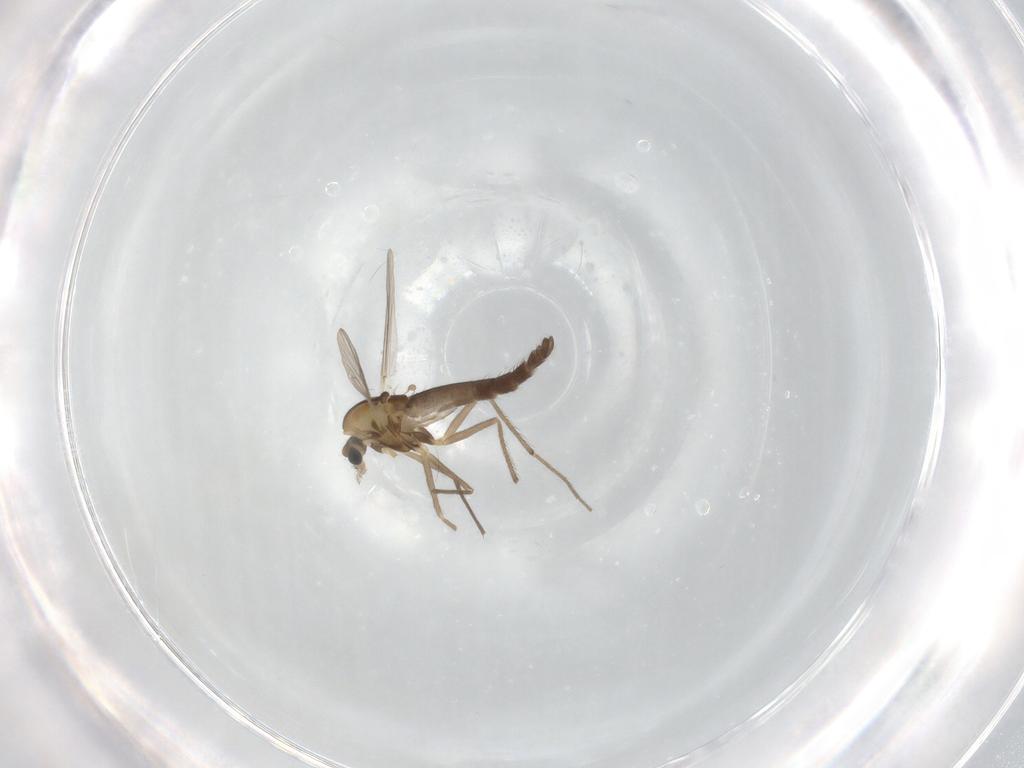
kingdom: Animalia
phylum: Arthropoda
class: Insecta
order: Diptera
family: Chironomidae
